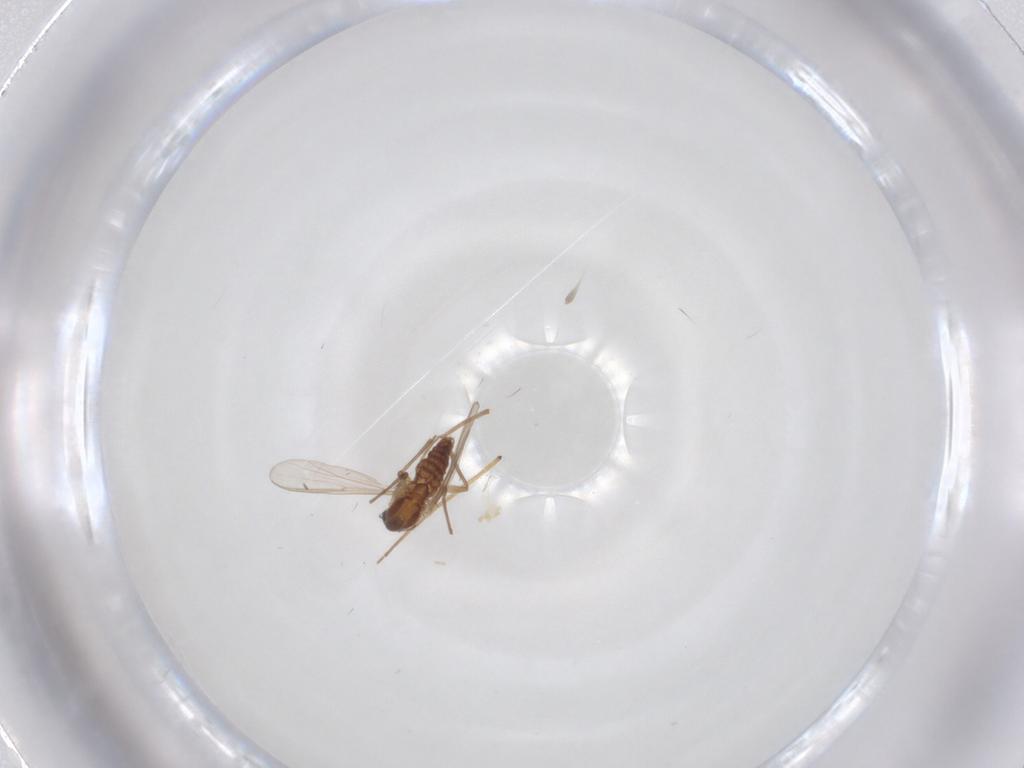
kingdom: Animalia
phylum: Arthropoda
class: Insecta
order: Diptera
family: Chironomidae
